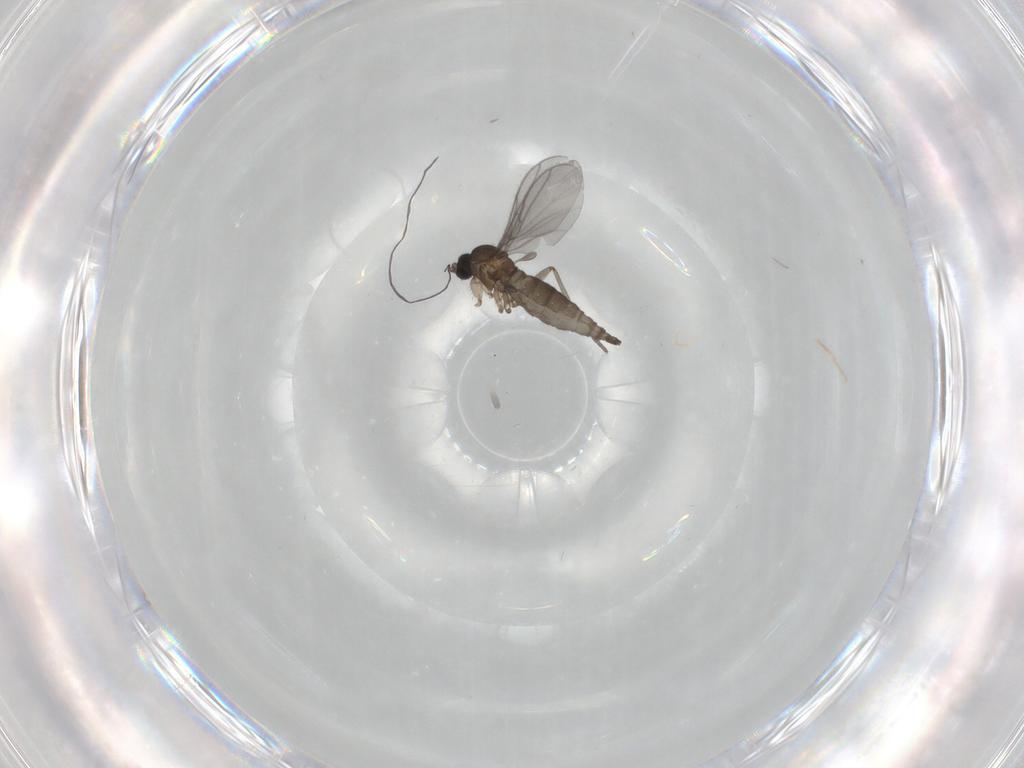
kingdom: Animalia
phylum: Arthropoda
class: Insecta
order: Diptera
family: Sciaridae
